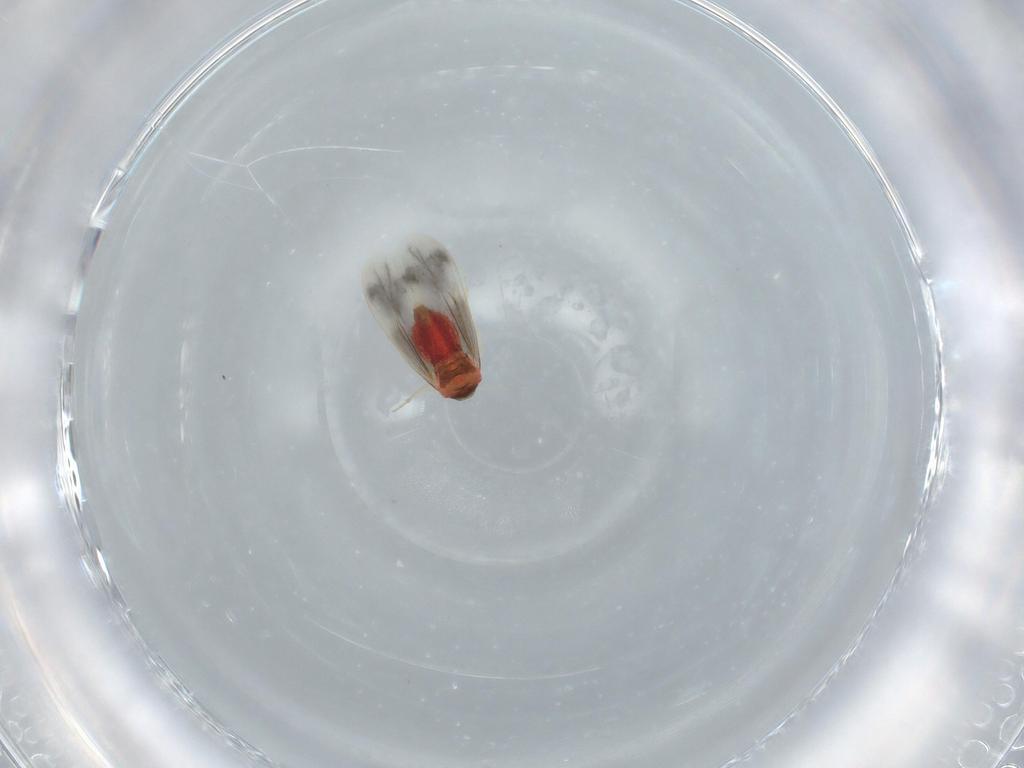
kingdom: Animalia
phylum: Arthropoda
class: Insecta
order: Hemiptera
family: Aleyrodidae
